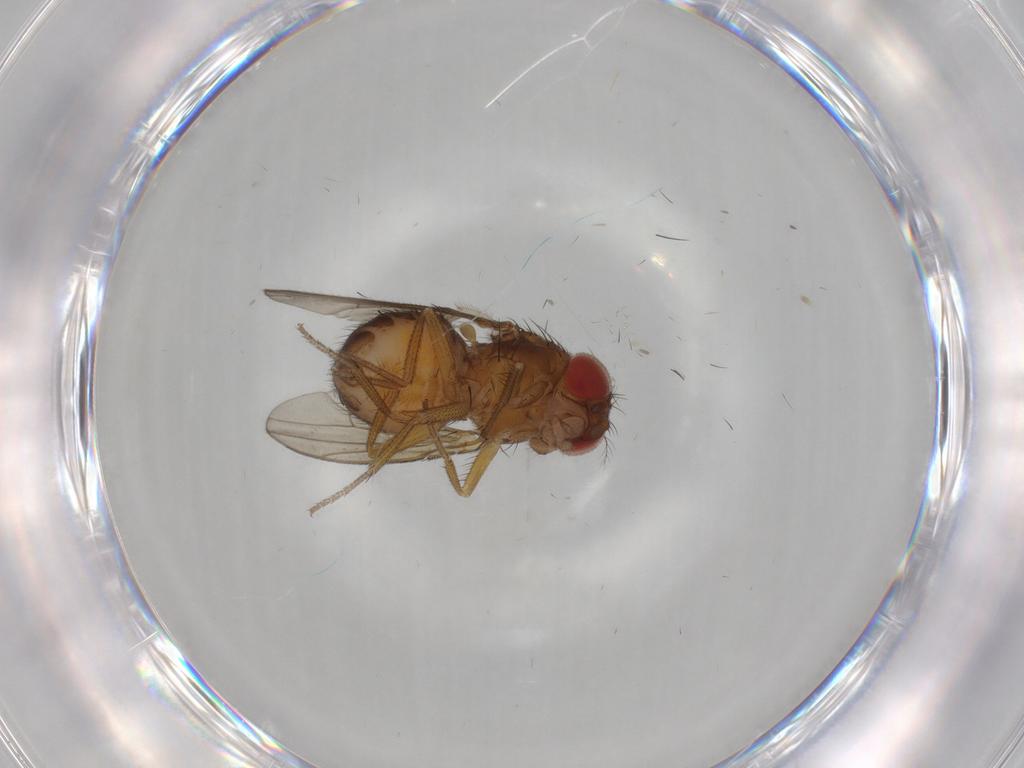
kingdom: Animalia
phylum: Arthropoda
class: Insecta
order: Diptera
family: Drosophilidae
